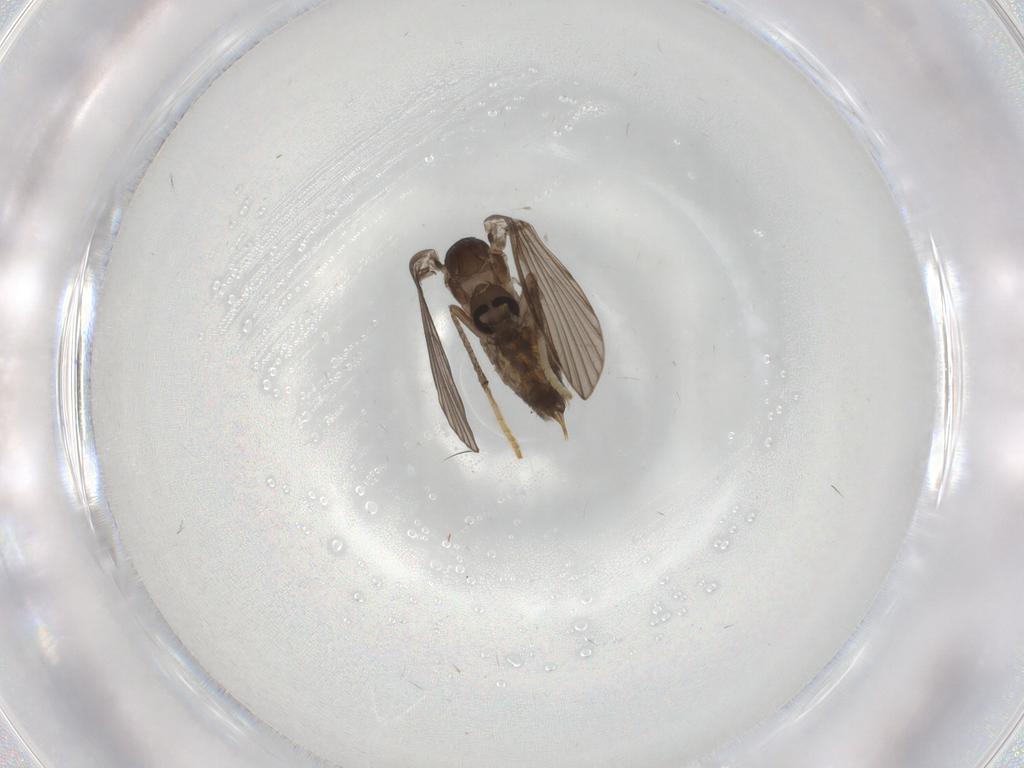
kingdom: Animalia
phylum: Arthropoda
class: Insecta
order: Diptera
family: Psychodidae
